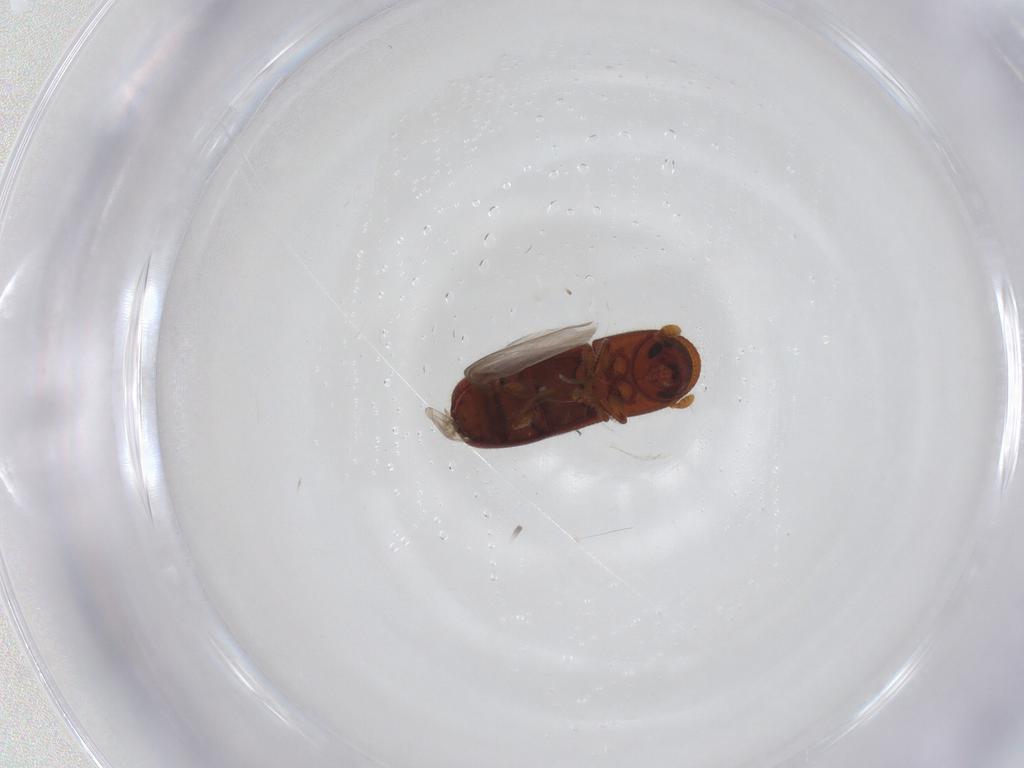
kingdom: Animalia
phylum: Arthropoda
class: Insecta
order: Coleoptera
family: Curculionidae
